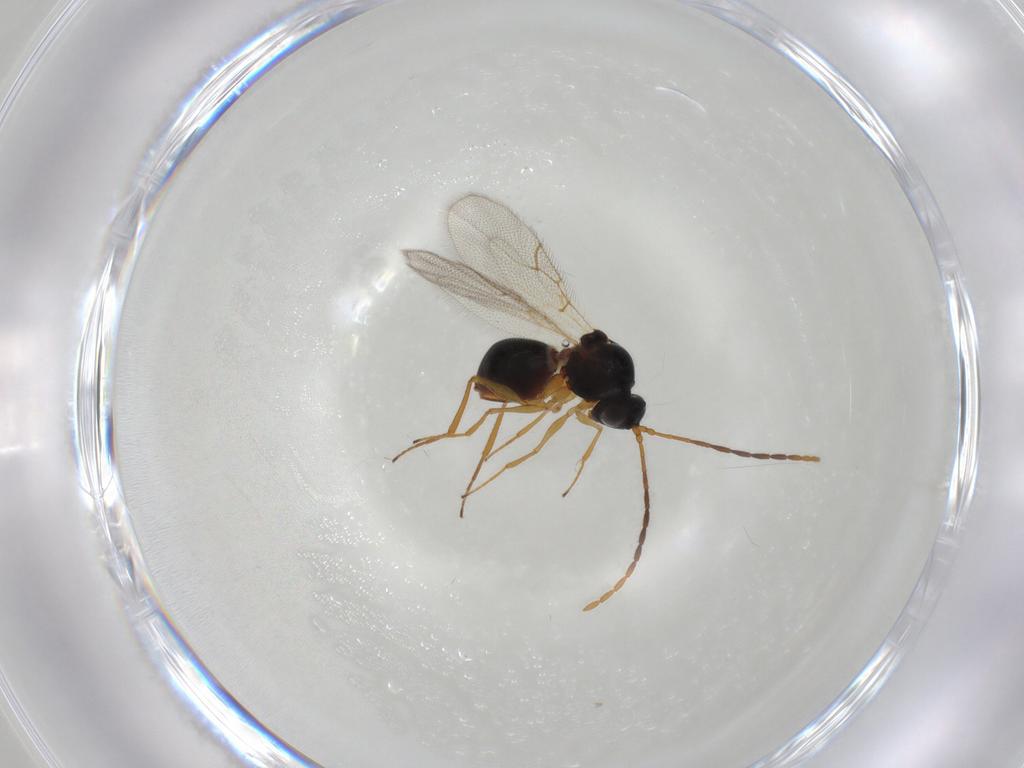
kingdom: Animalia
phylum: Arthropoda
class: Insecta
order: Hymenoptera
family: Figitidae
